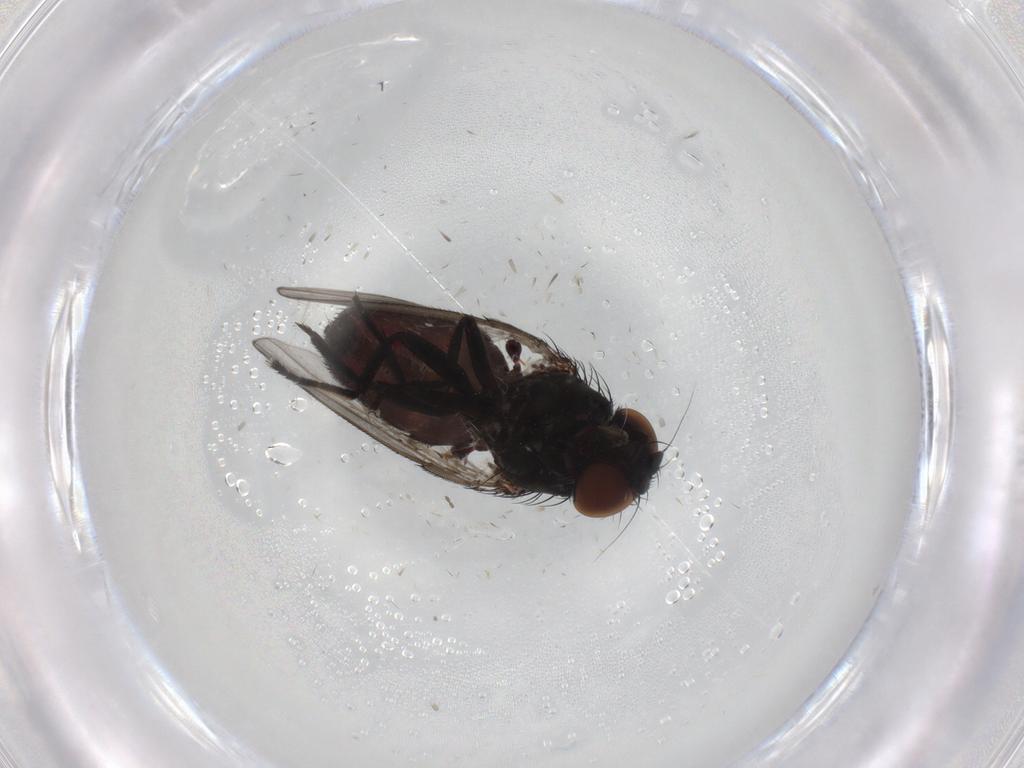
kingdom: Animalia
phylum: Arthropoda
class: Insecta
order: Diptera
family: Milichiidae
